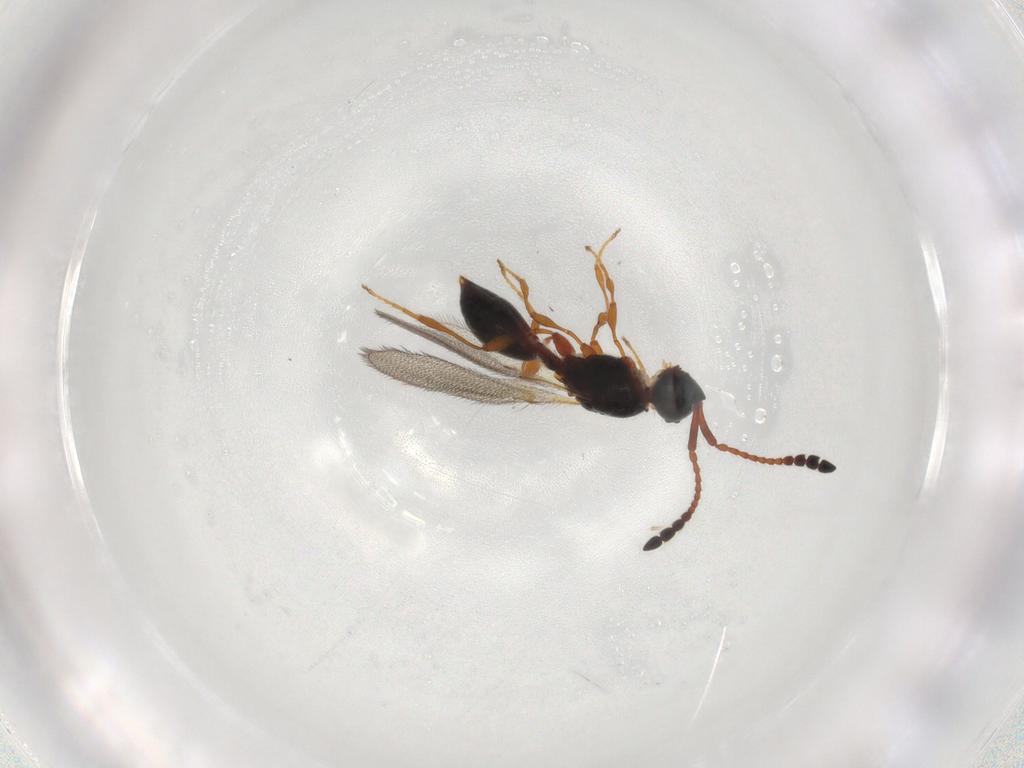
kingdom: Animalia
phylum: Arthropoda
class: Insecta
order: Hymenoptera
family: Diapriidae
